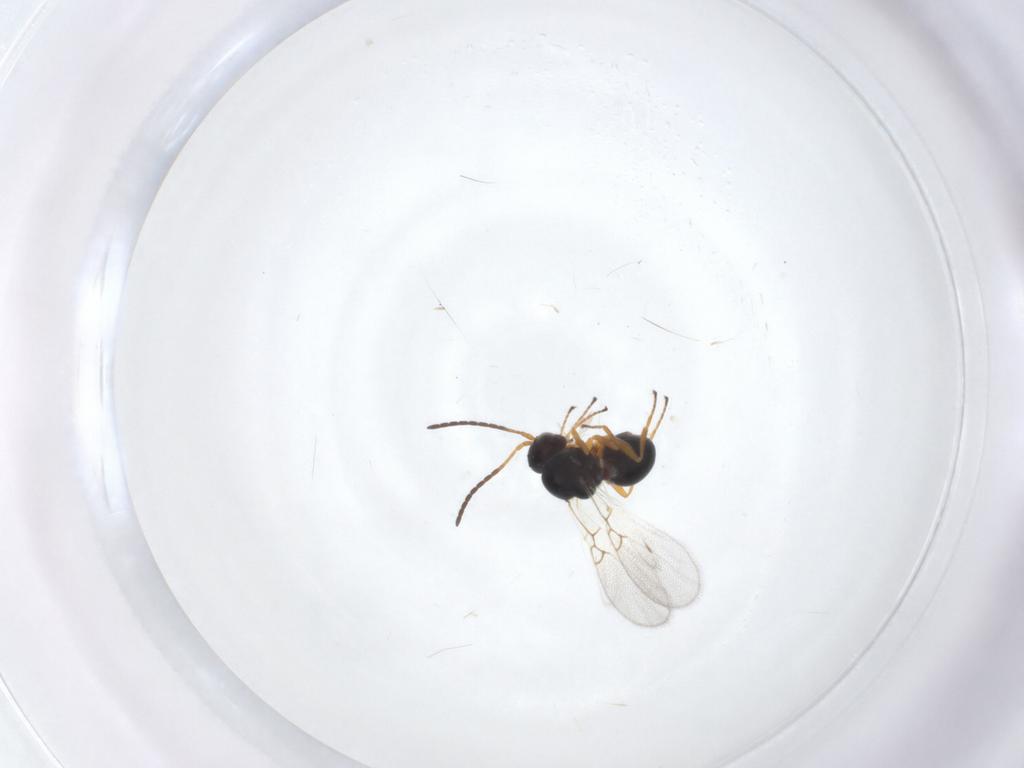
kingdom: Animalia
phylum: Arthropoda
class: Insecta
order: Hymenoptera
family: Figitidae
